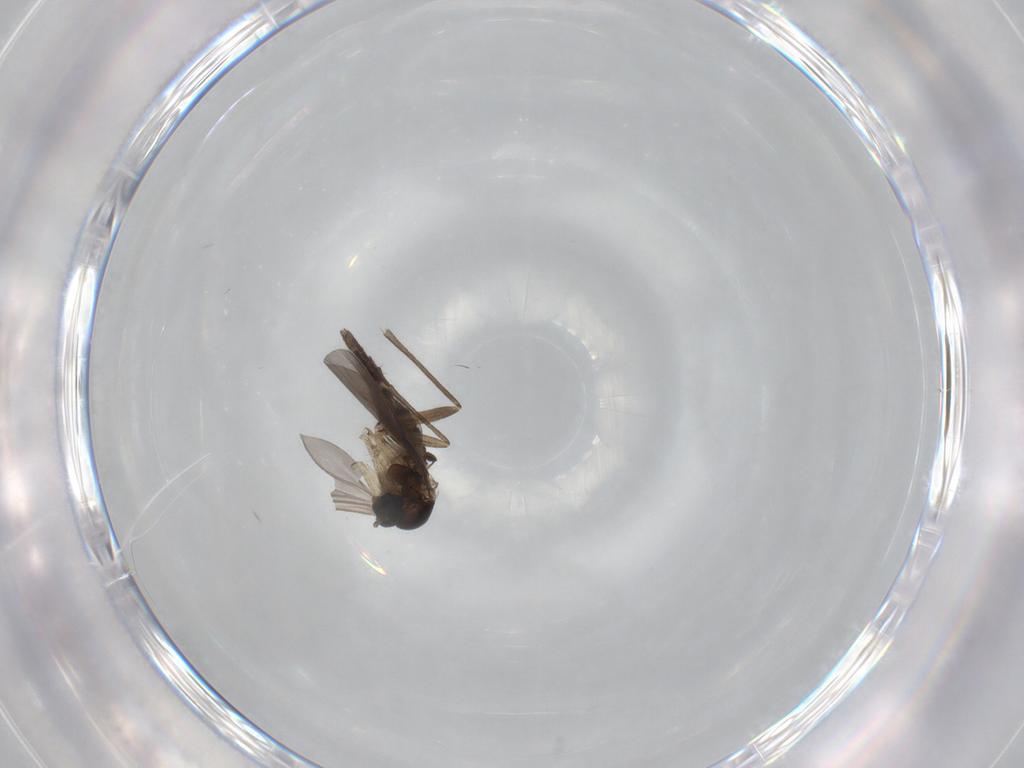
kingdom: Animalia
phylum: Arthropoda
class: Insecta
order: Diptera
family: Sciaridae
